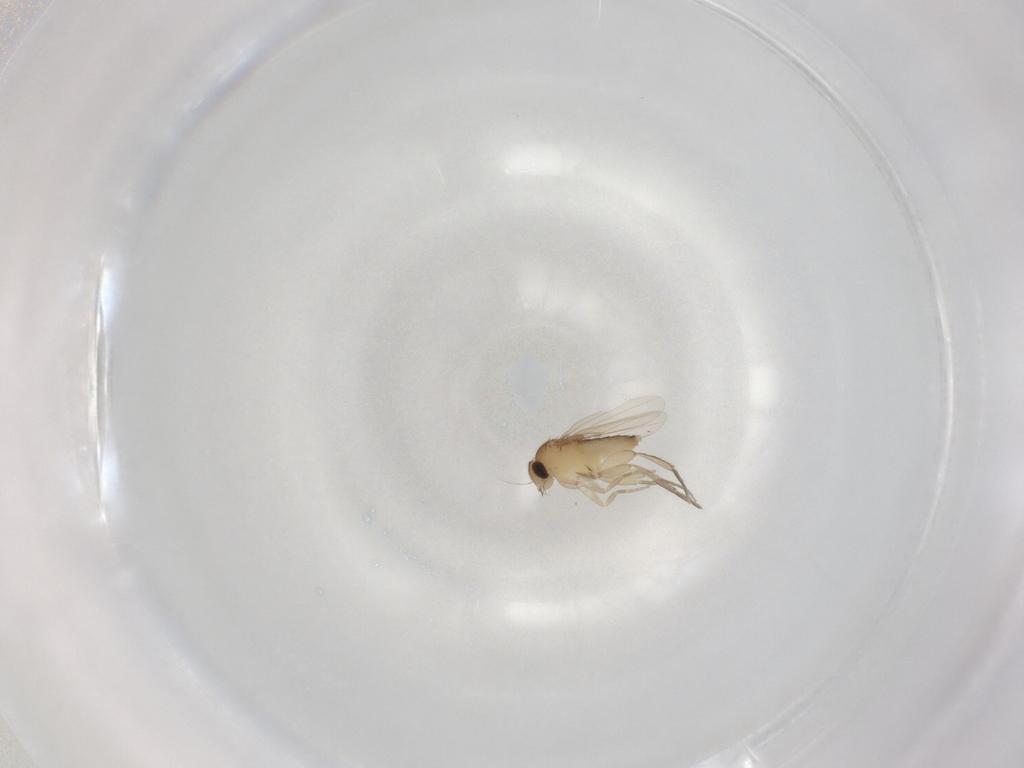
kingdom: Animalia
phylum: Arthropoda
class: Insecta
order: Diptera
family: Phoridae
